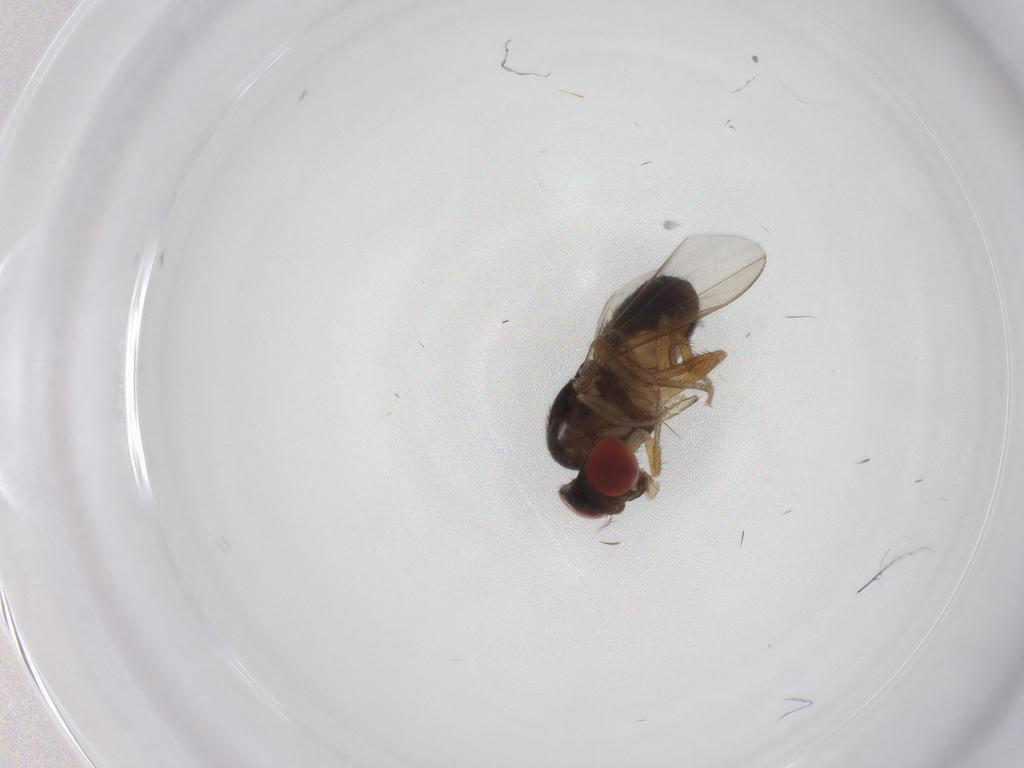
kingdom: Animalia
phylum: Arthropoda
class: Insecta
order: Diptera
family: Drosophilidae
